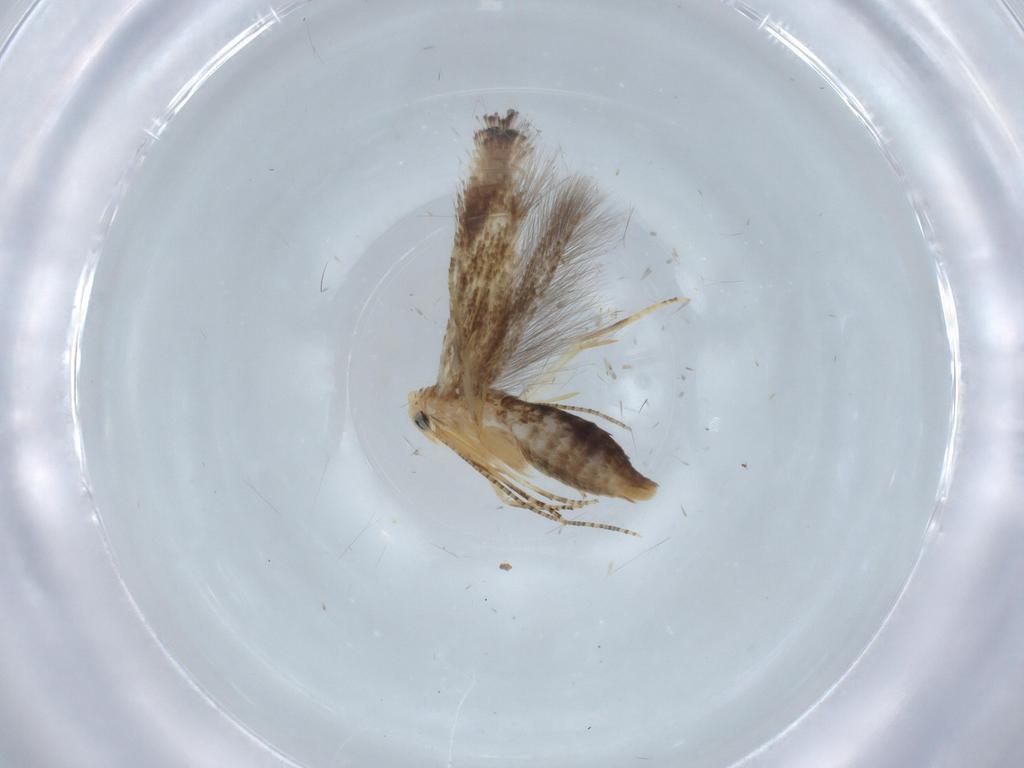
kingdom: Animalia
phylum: Arthropoda
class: Insecta
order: Lepidoptera
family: Tineidae
